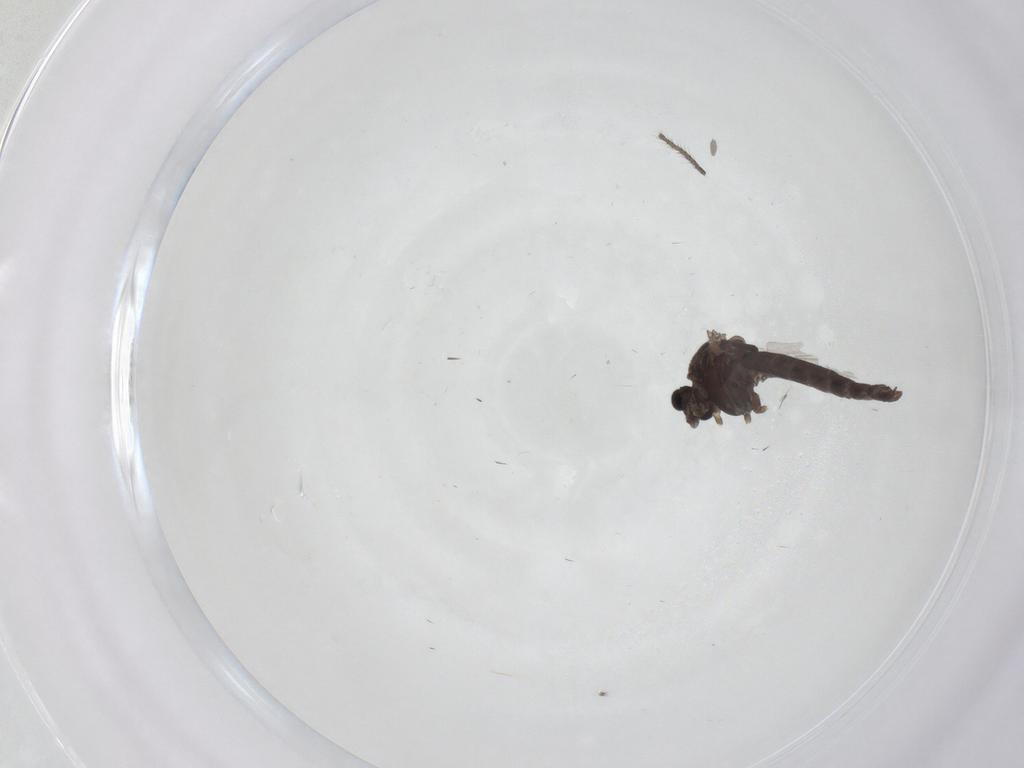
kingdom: Animalia
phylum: Arthropoda
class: Insecta
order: Diptera
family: Chironomidae
